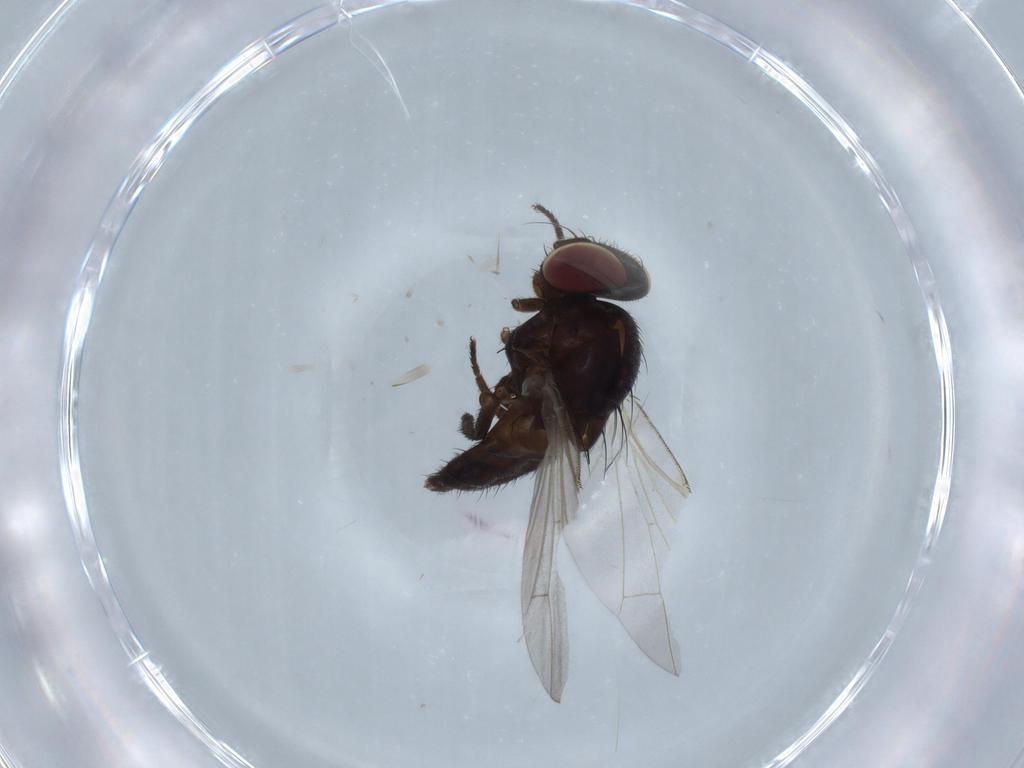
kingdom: Animalia
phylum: Arthropoda
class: Insecta
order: Diptera
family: Lonchaeidae
